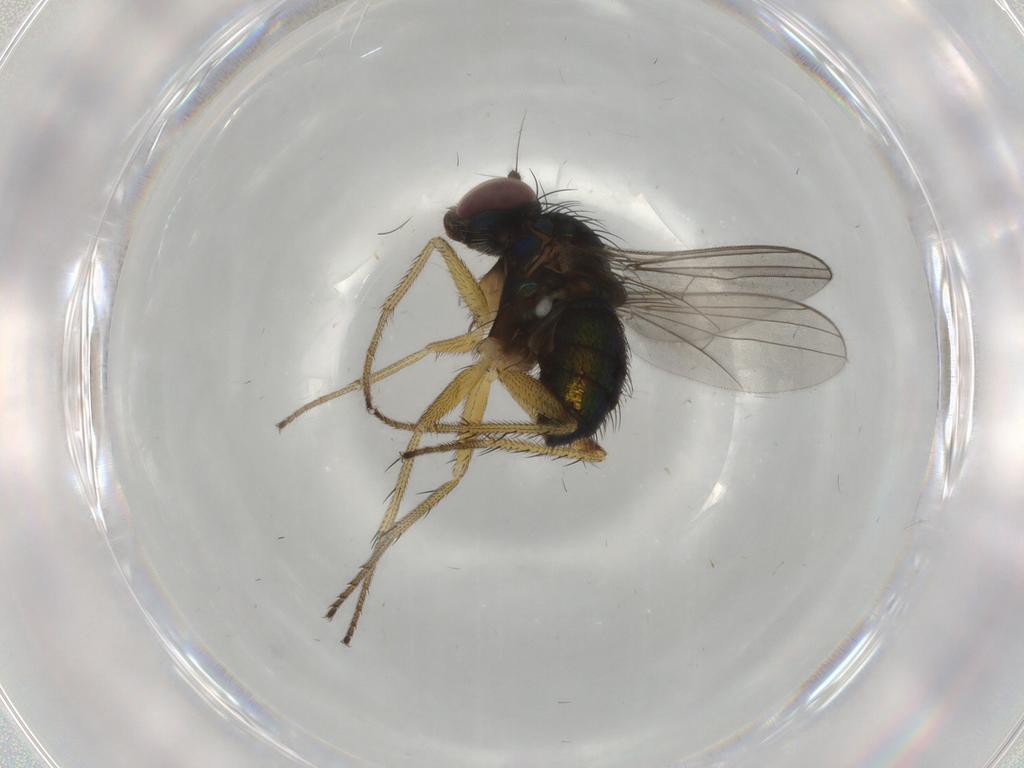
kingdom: Animalia
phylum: Arthropoda
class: Insecta
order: Diptera
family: Dolichopodidae
